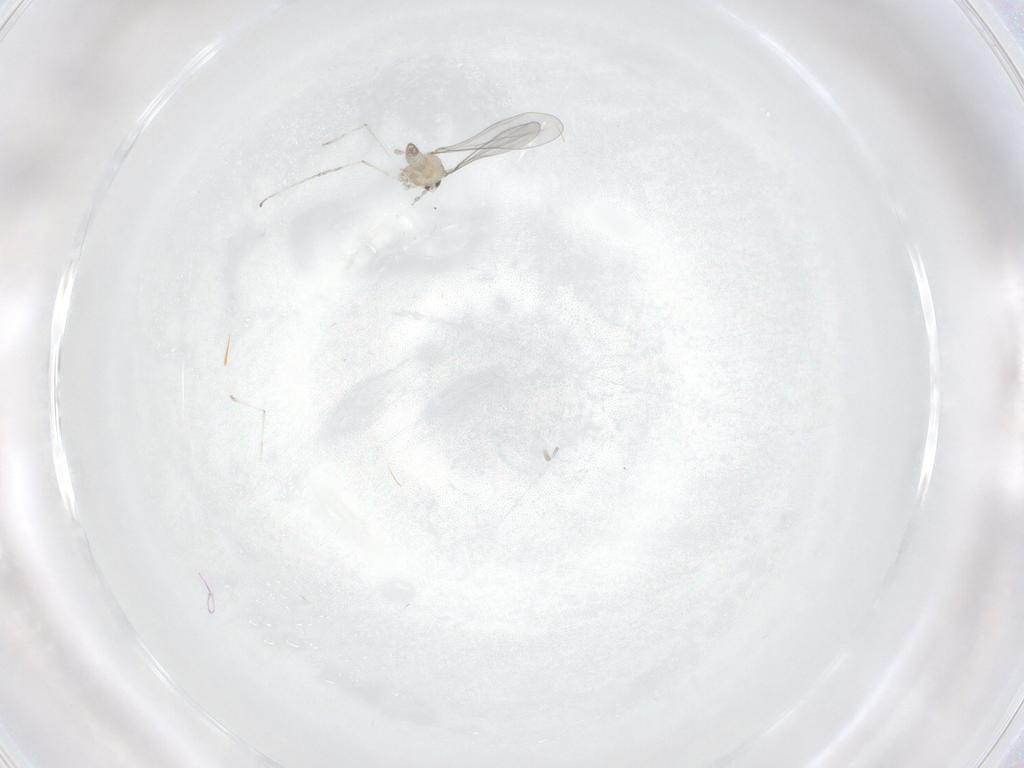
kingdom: Animalia
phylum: Arthropoda
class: Insecta
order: Diptera
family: Cecidomyiidae
